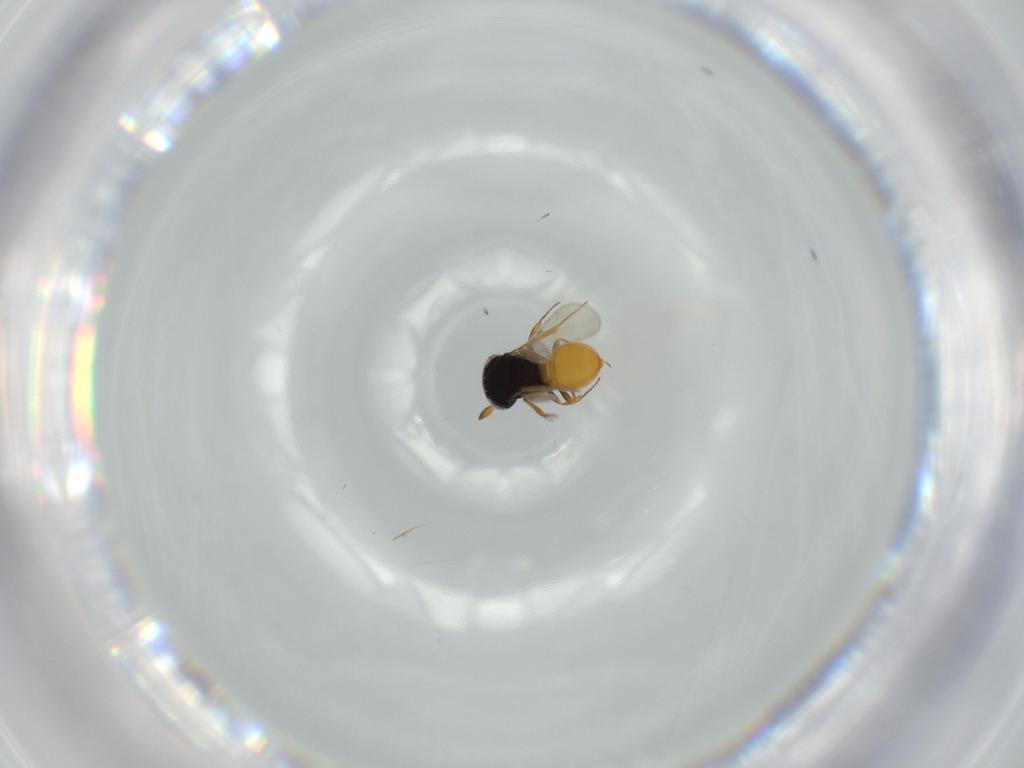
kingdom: Animalia
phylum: Arthropoda
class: Insecta
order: Hymenoptera
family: Scelionidae
